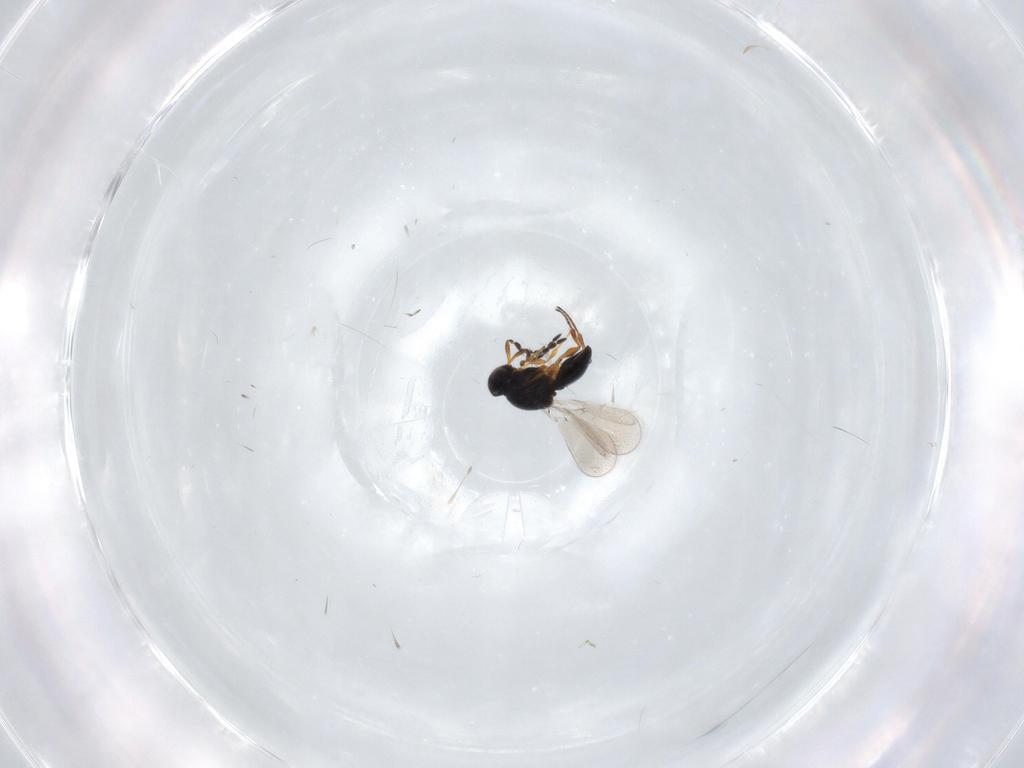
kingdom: Animalia
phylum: Arthropoda
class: Insecta
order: Hymenoptera
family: Platygastridae
